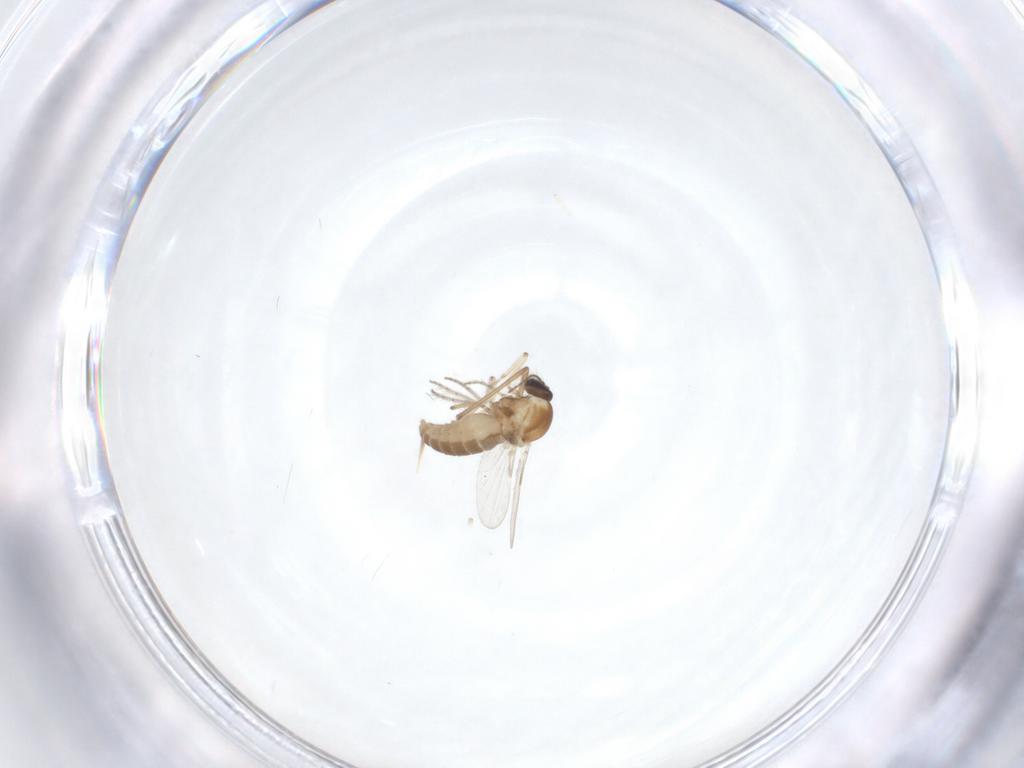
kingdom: Animalia
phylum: Arthropoda
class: Insecta
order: Diptera
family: Chironomidae
